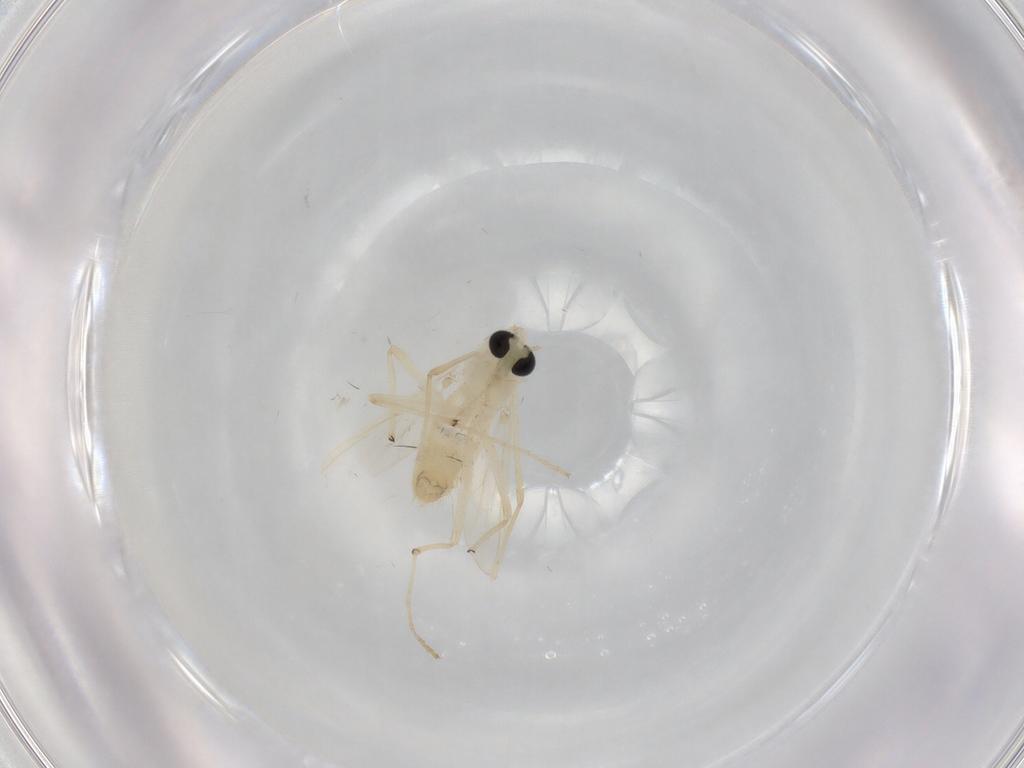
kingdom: Animalia
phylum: Arthropoda
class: Insecta
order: Diptera
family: Chironomidae
